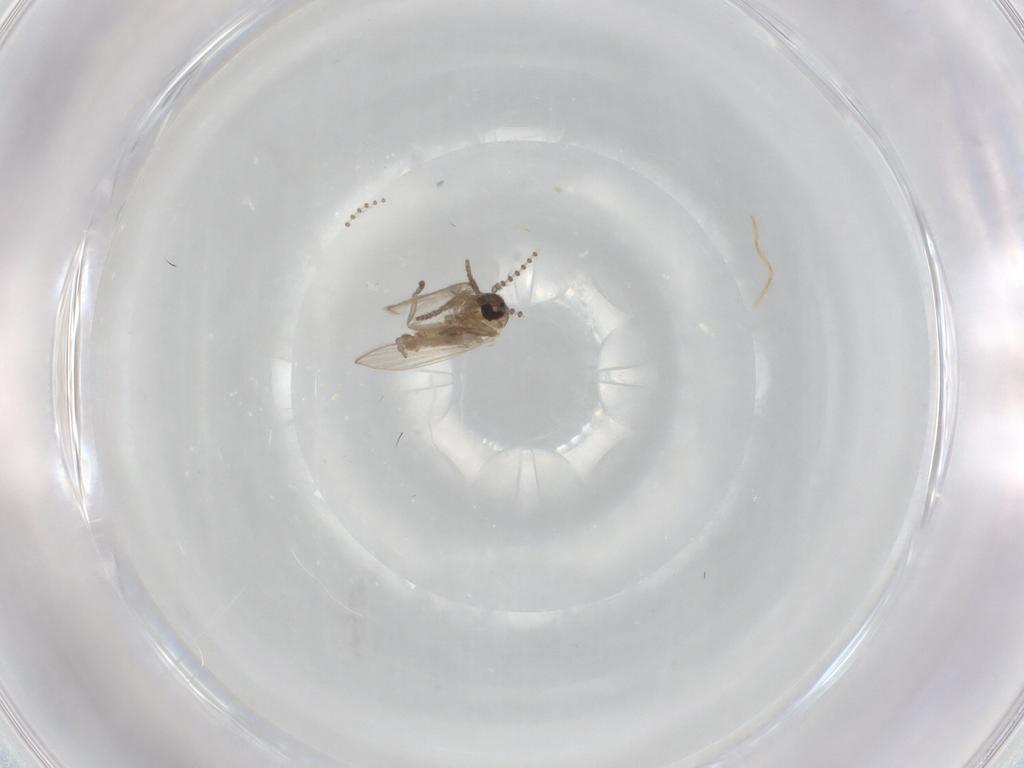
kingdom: Animalia
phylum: Arthropoda
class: Insecta
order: Diptera
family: Psychodidae
